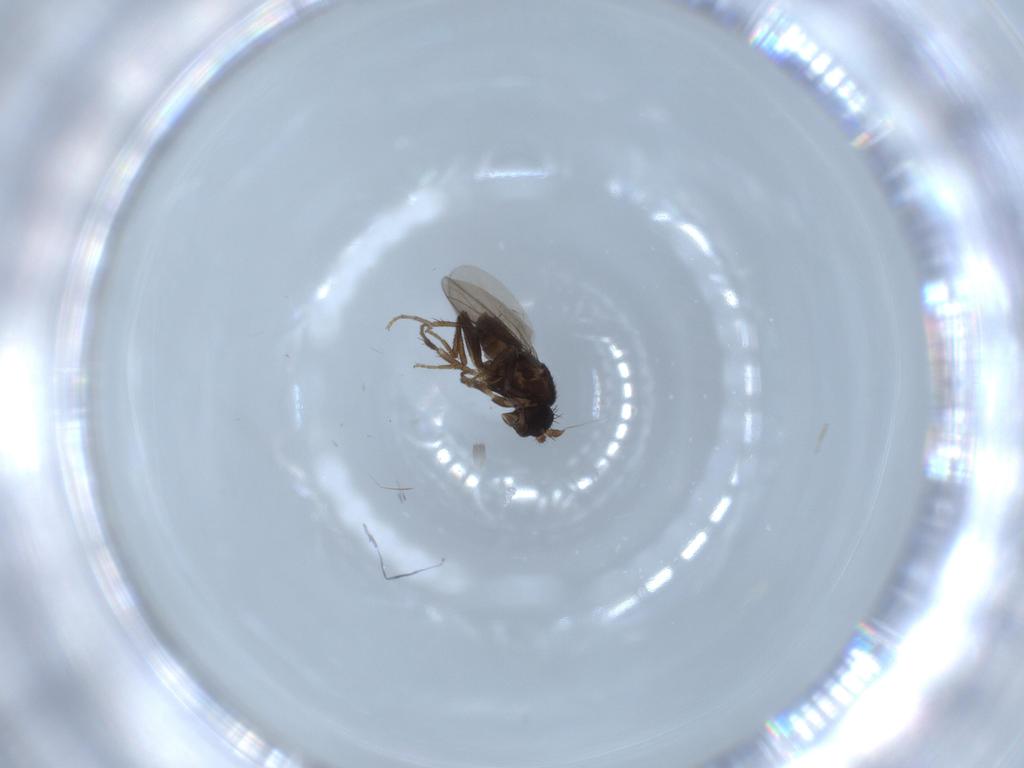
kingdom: Animalia
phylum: Arthropoda
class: Insecta
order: Diptera
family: Sphaeroceridae
